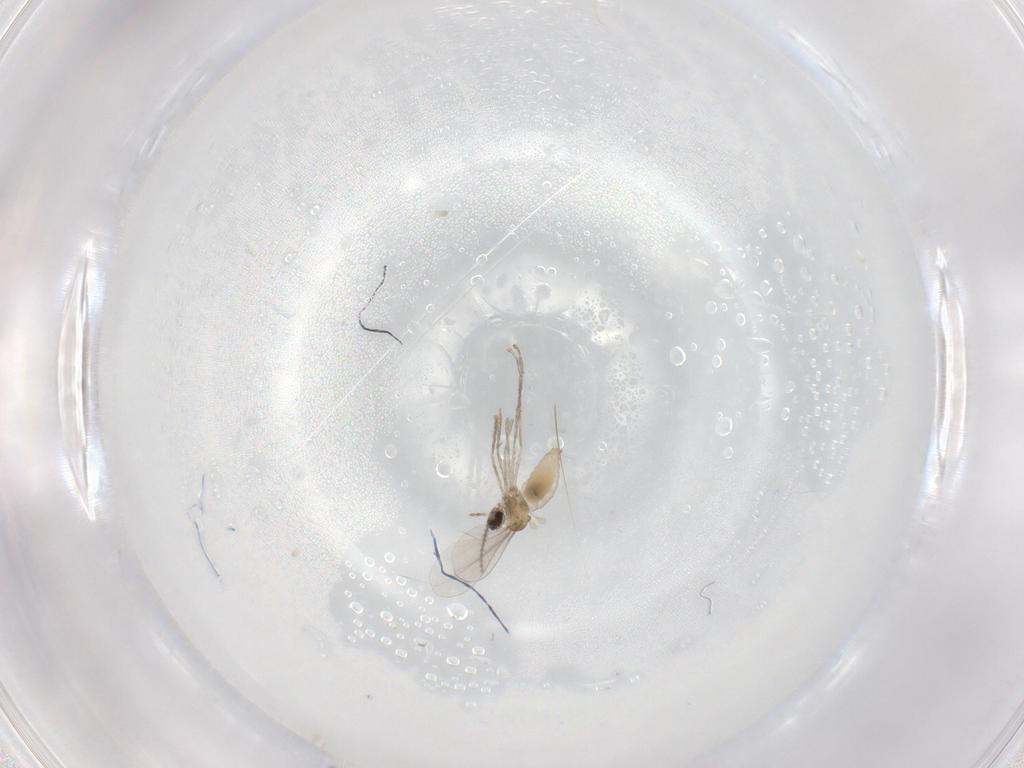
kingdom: Animalia
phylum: Arthropoda
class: Insecta
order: Diptera
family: Cecidomyiidae
